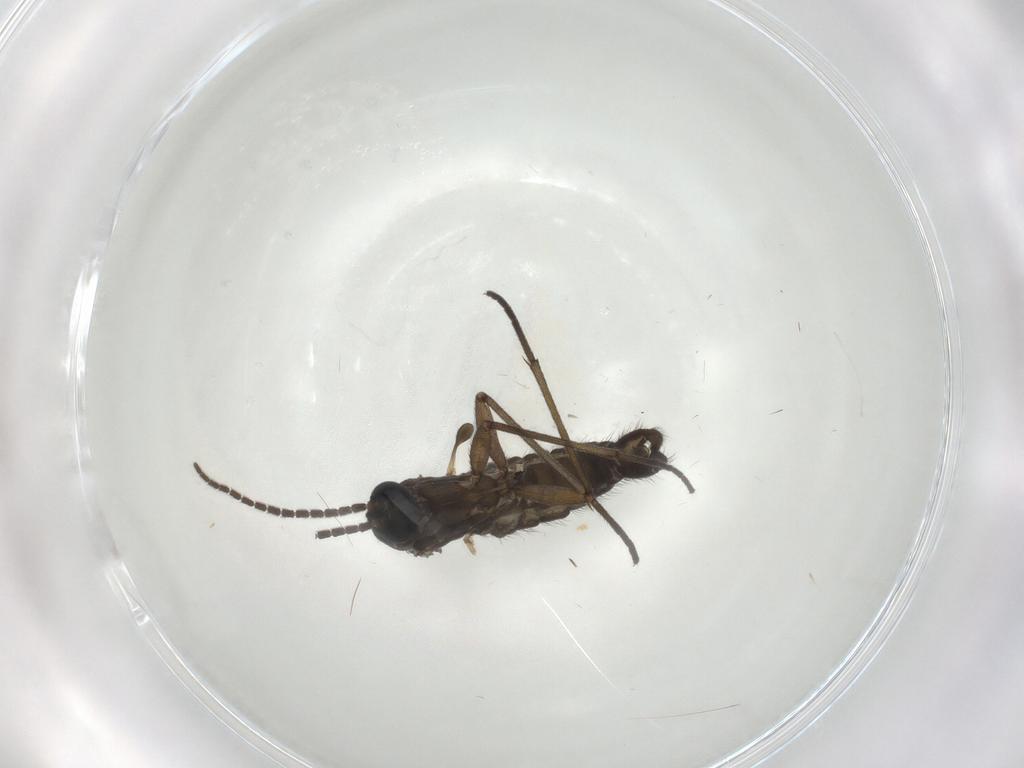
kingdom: Animalia
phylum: Arthropoda
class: Insecta
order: Diptera
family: Sciaridae
